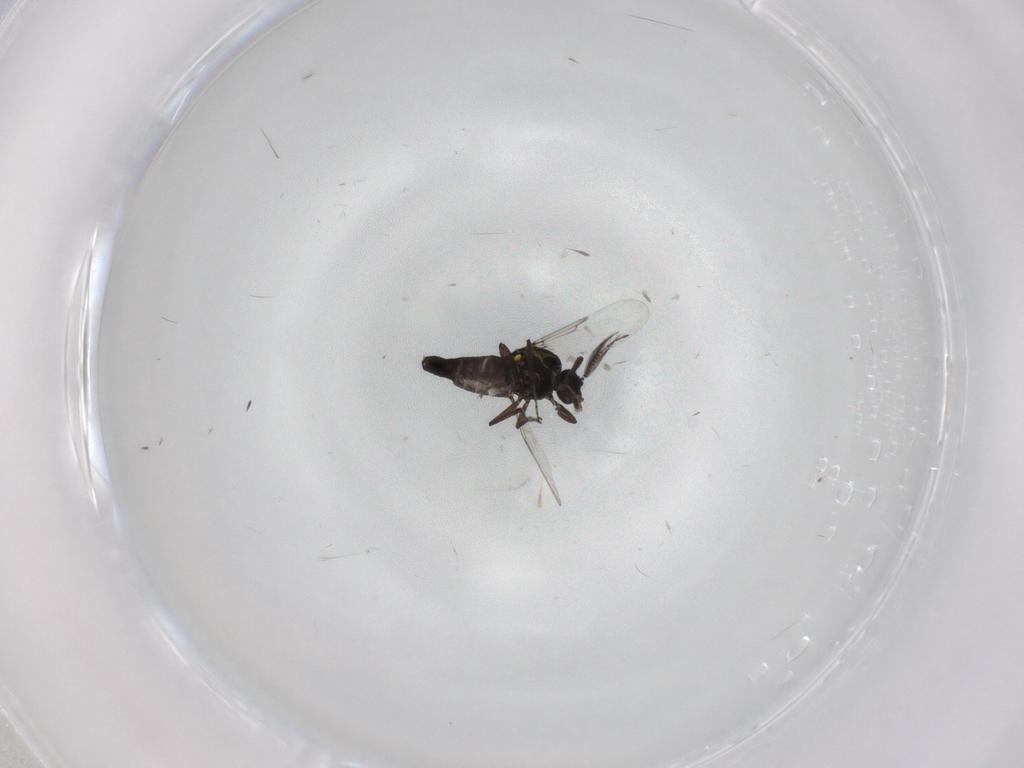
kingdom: Animalia
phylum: Arthropoda
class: Insecta
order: Diptera
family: Ceratopogonidae
